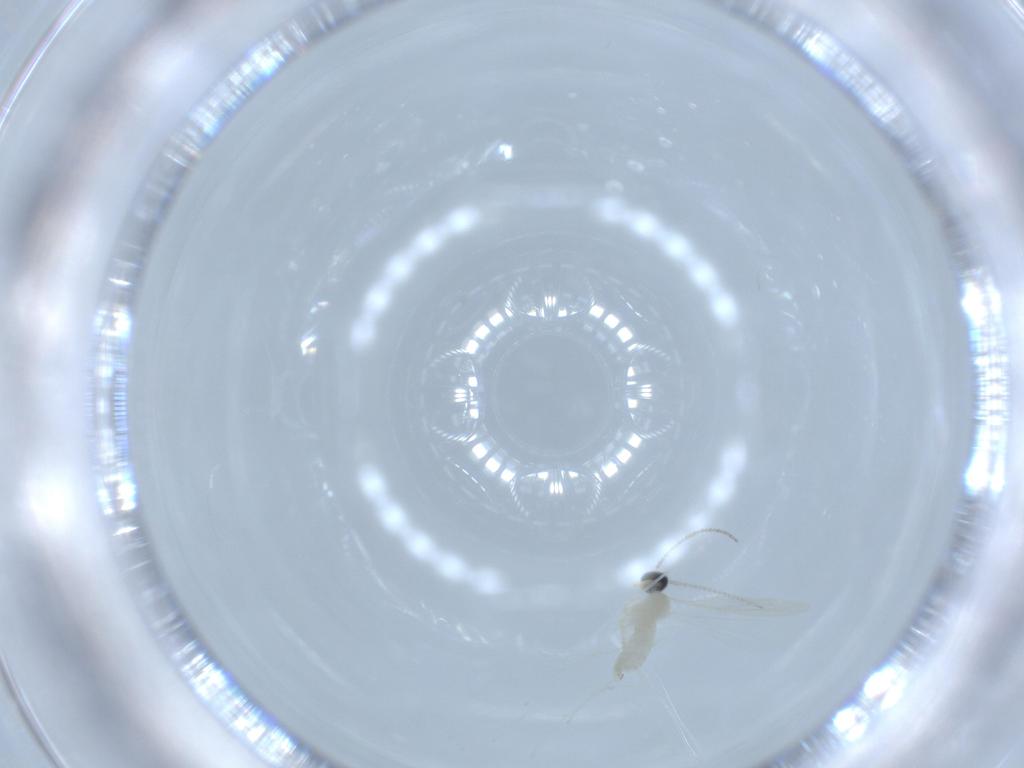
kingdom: Animalia
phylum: Arthropoda
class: Insecta
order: Diptera
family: Cecidomyiidae
